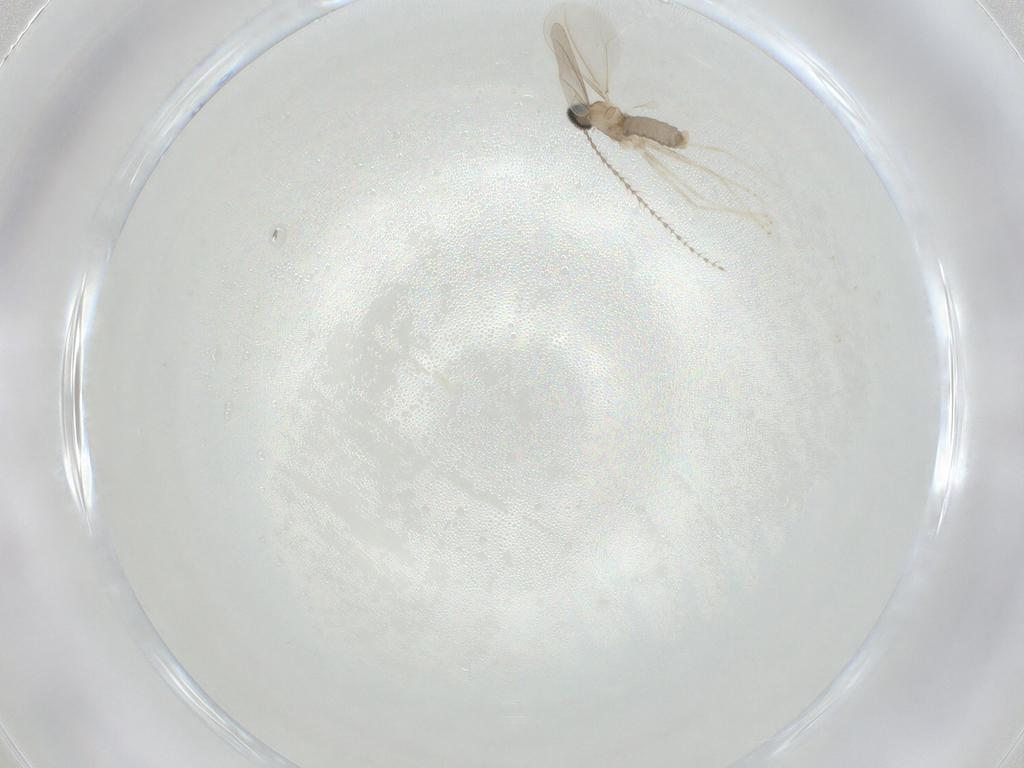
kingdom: Animalia
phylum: Arthropoda
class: Insecta
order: Diptera
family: Cecidomyiidae
